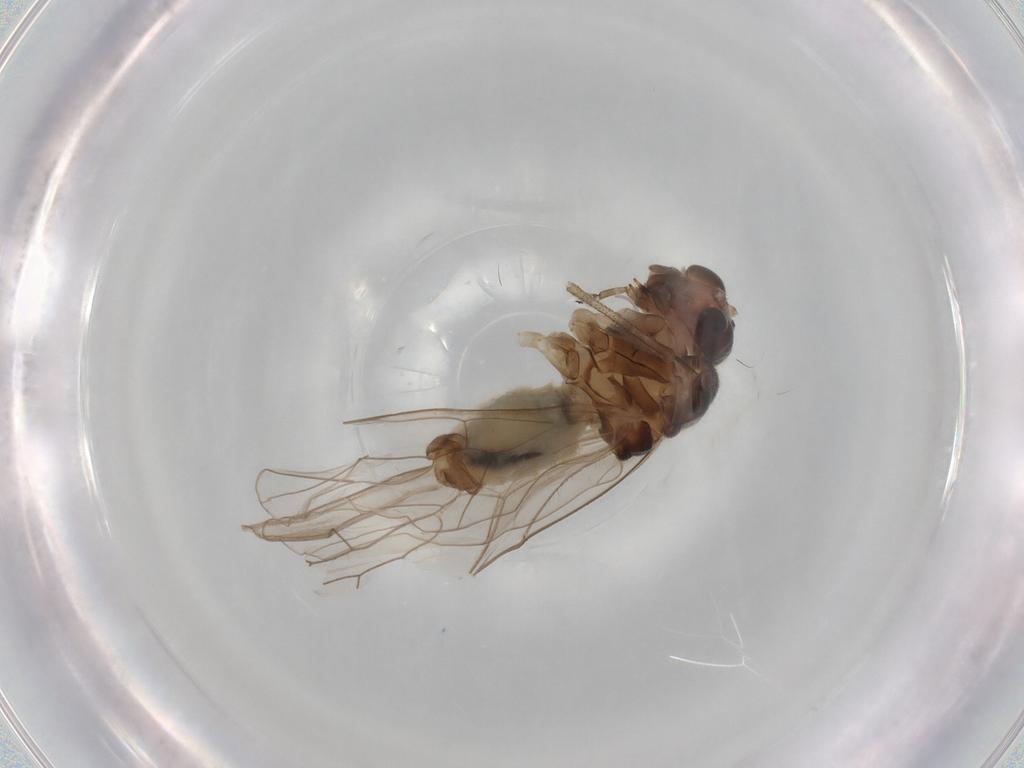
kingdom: Animalia
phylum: Arthropoda
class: Insecta
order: Psocodea
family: Stenopsocidae
